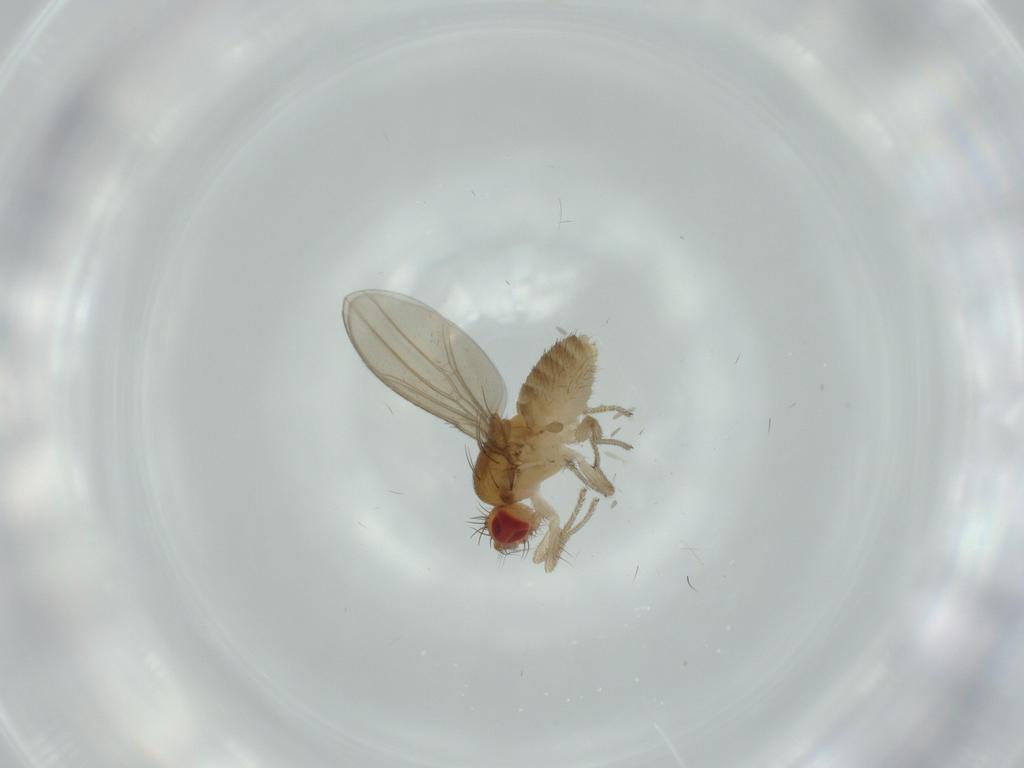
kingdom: Animalia
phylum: Arthropoda
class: Insecta
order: Diptera
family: Drosophilidae
